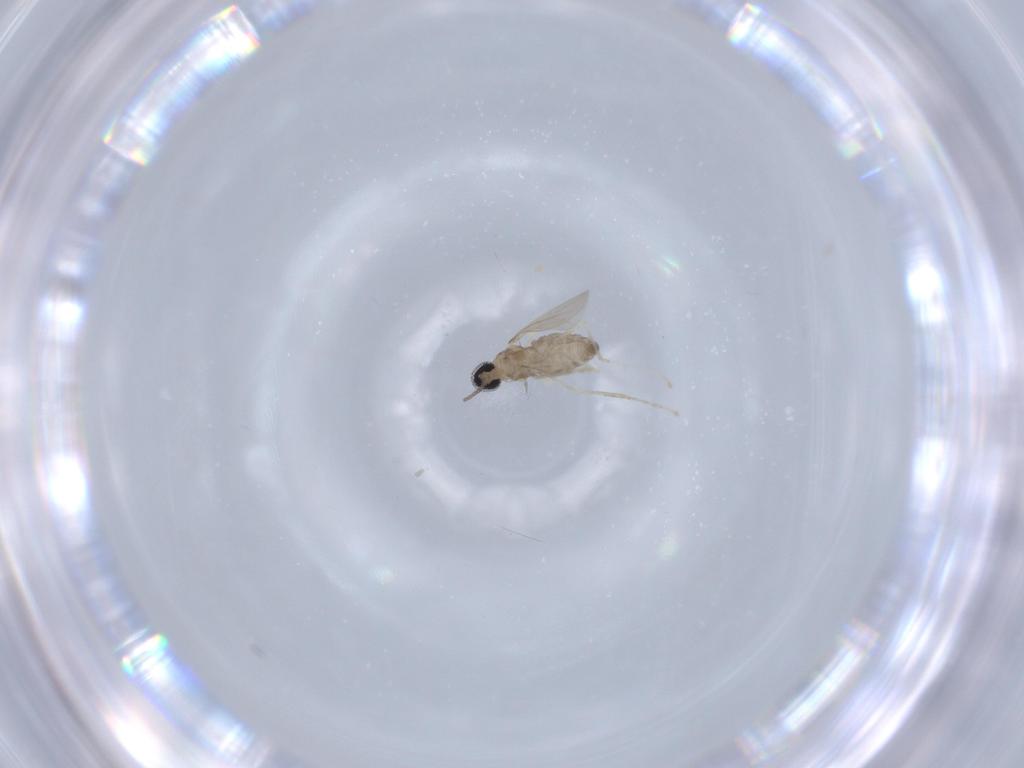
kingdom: Animalia
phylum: Arthropoda
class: Insecta
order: Diptera
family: Cecidomyiidae
